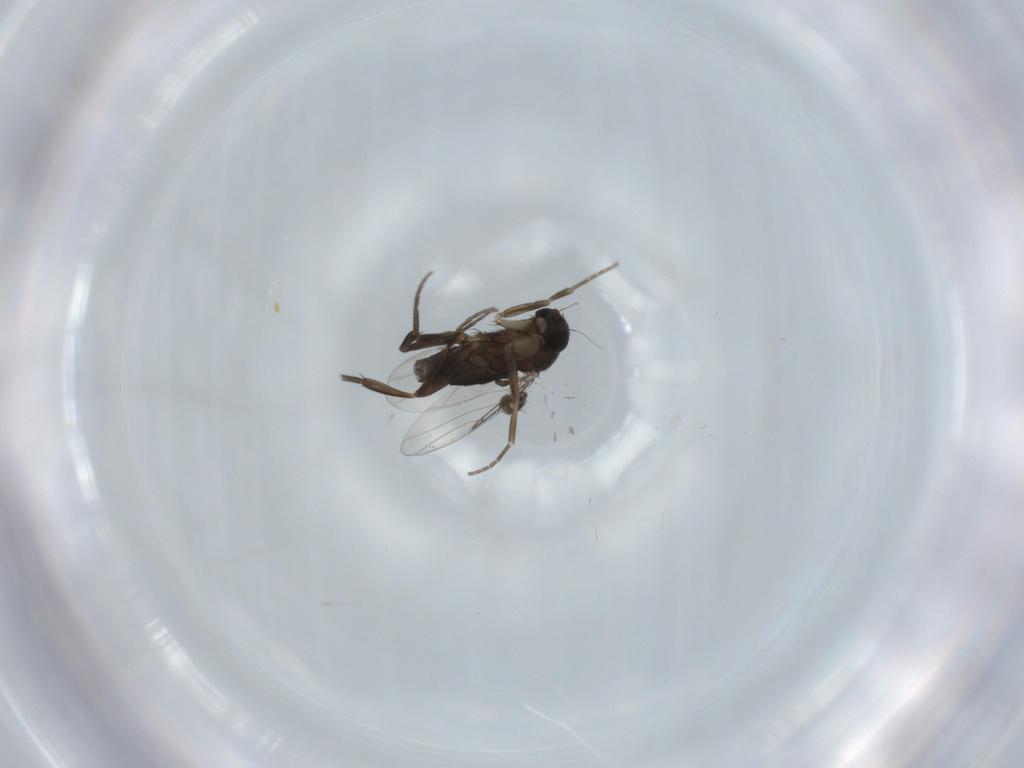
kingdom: Animalia
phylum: Arthropoda
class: Insecta
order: Diptera
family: Phoridae
